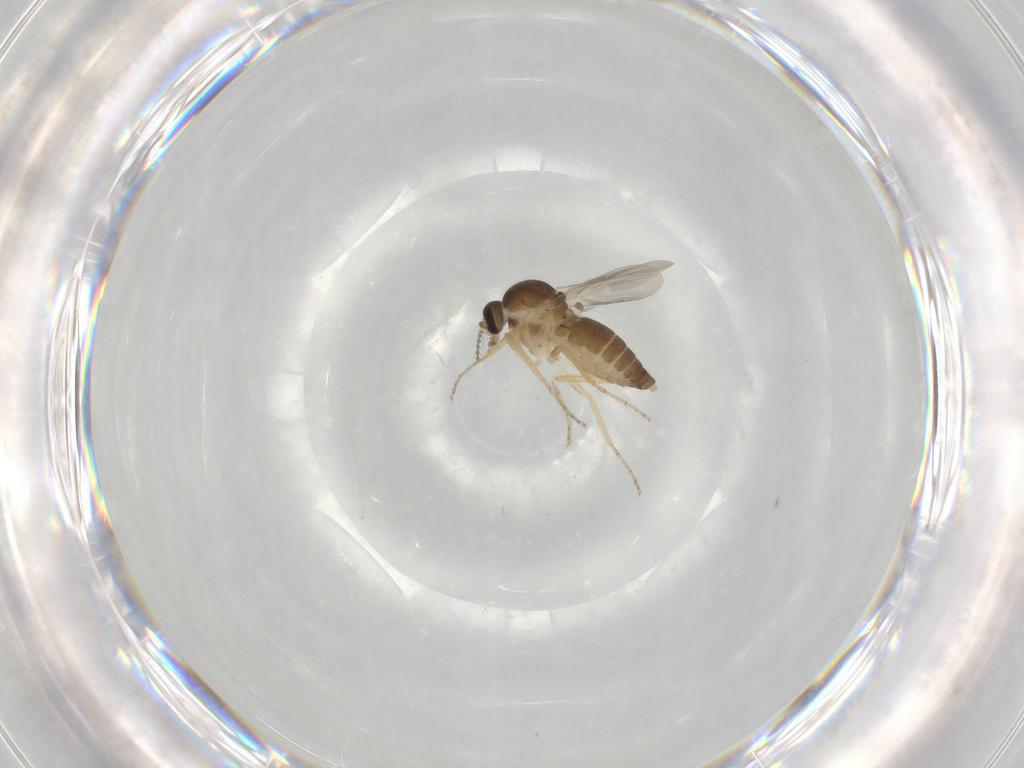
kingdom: Animalia
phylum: Arthropoda
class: Insecta
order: Diptera
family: Ceratopogonidae
